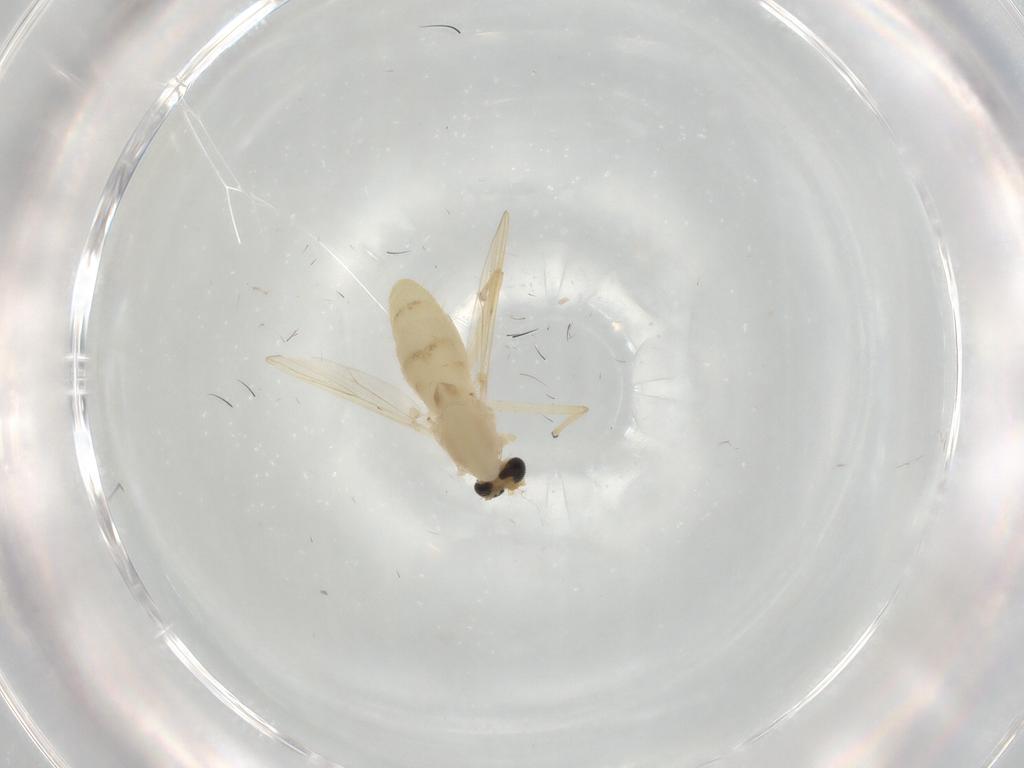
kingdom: Animalia
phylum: Arthropoda
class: Insecta
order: Diptera
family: Chironomidae
